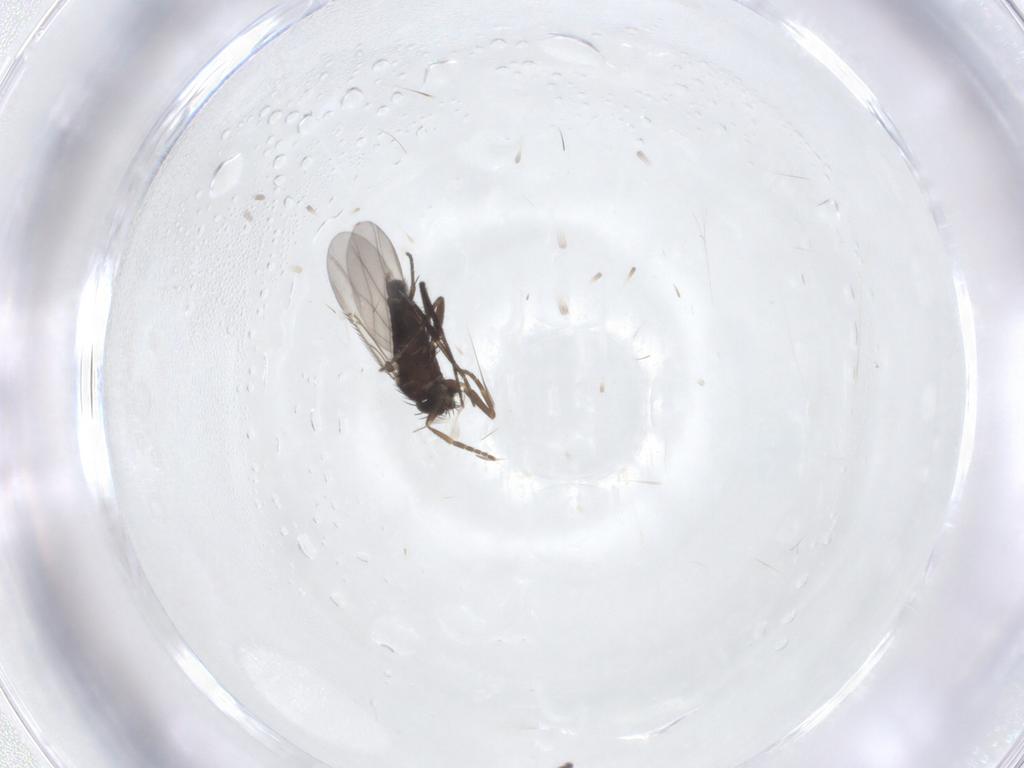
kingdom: Animalia
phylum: Arthropoda
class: Insecta
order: Diptera
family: Phoridae
